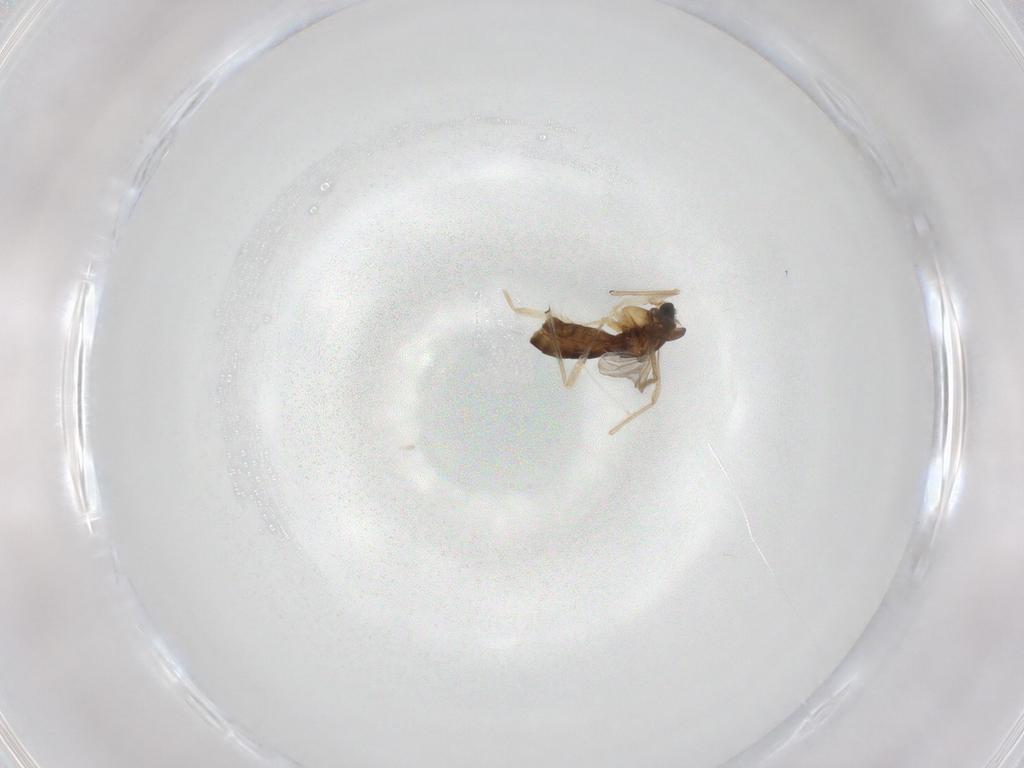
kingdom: Animalia
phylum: Arthropoda
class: Insecta
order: Diptera
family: Chironomidae
